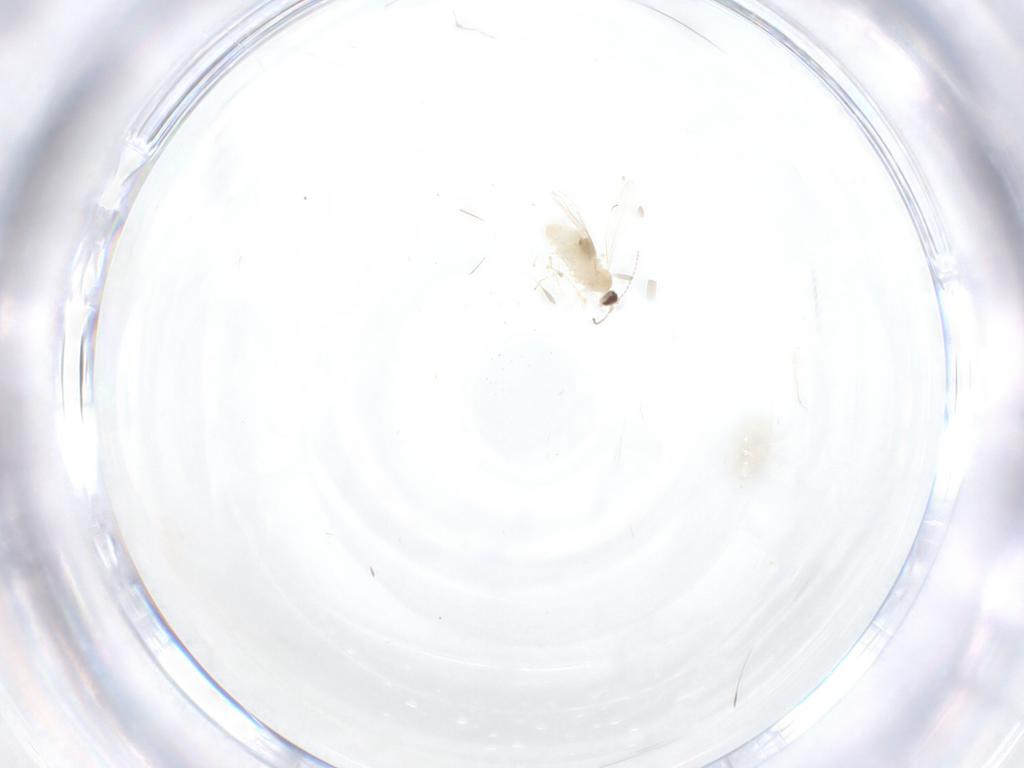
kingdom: Animalia
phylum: Arthropoda
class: Insecta
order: Diptera
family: Cecidomyiidae
